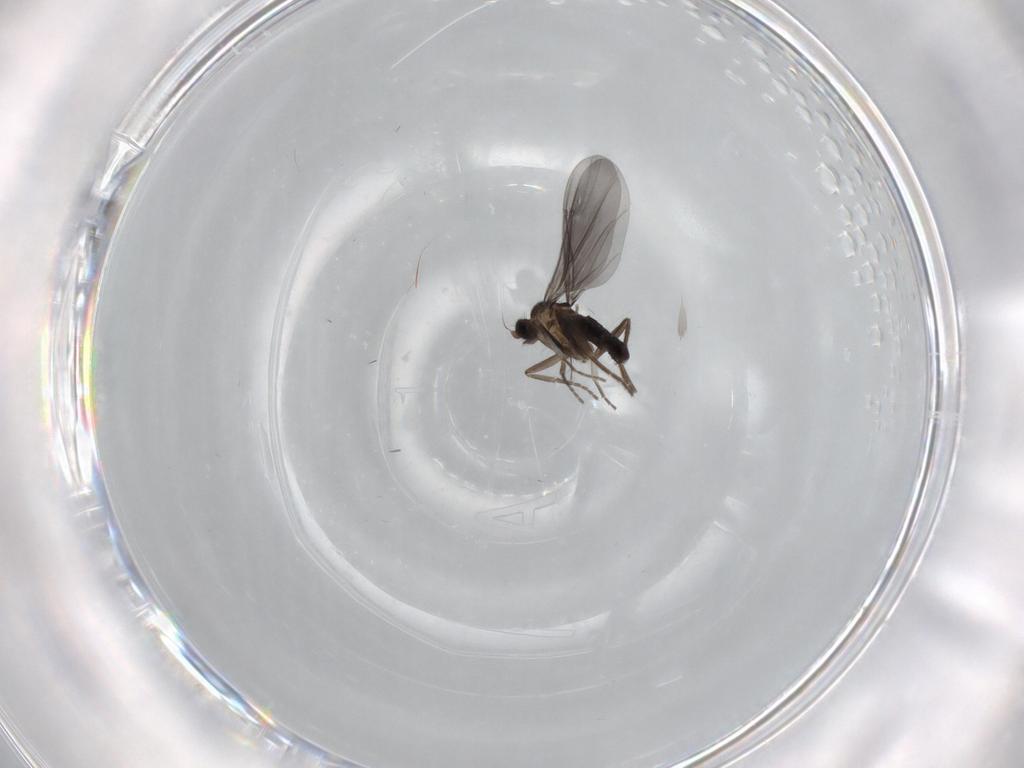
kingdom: Animalia
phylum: Arthropoda
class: Insecta
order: Diptera
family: Phoridae
